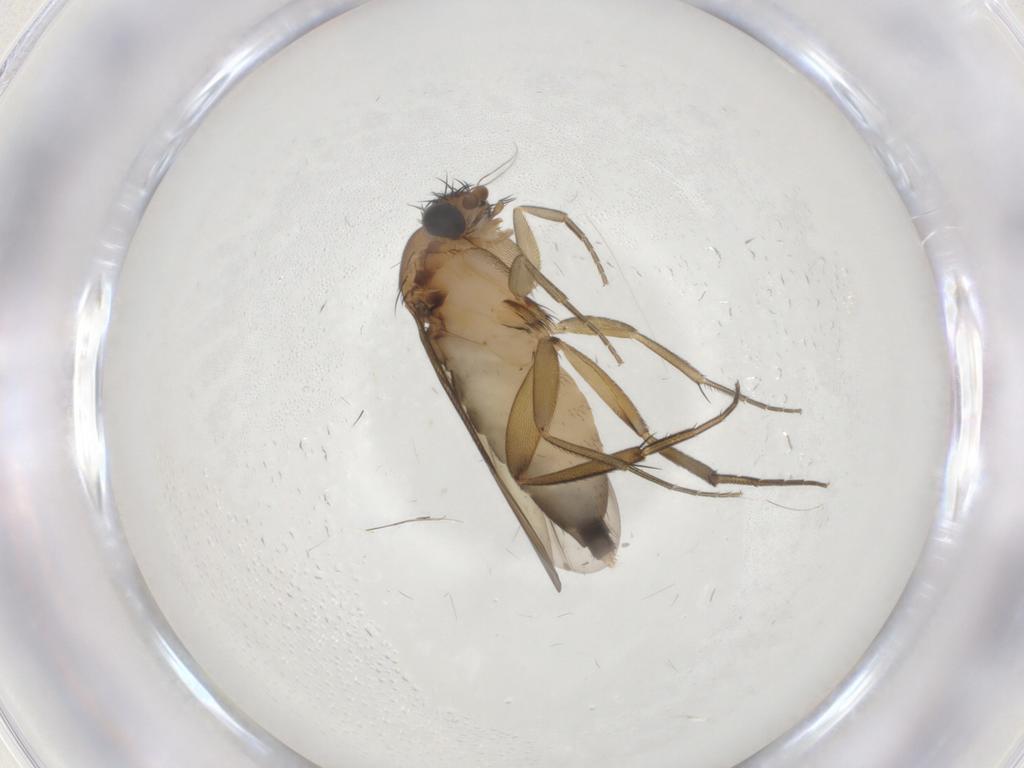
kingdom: Animalia
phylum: Arthropoda
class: Insecta
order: Diptera
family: Phoridae
